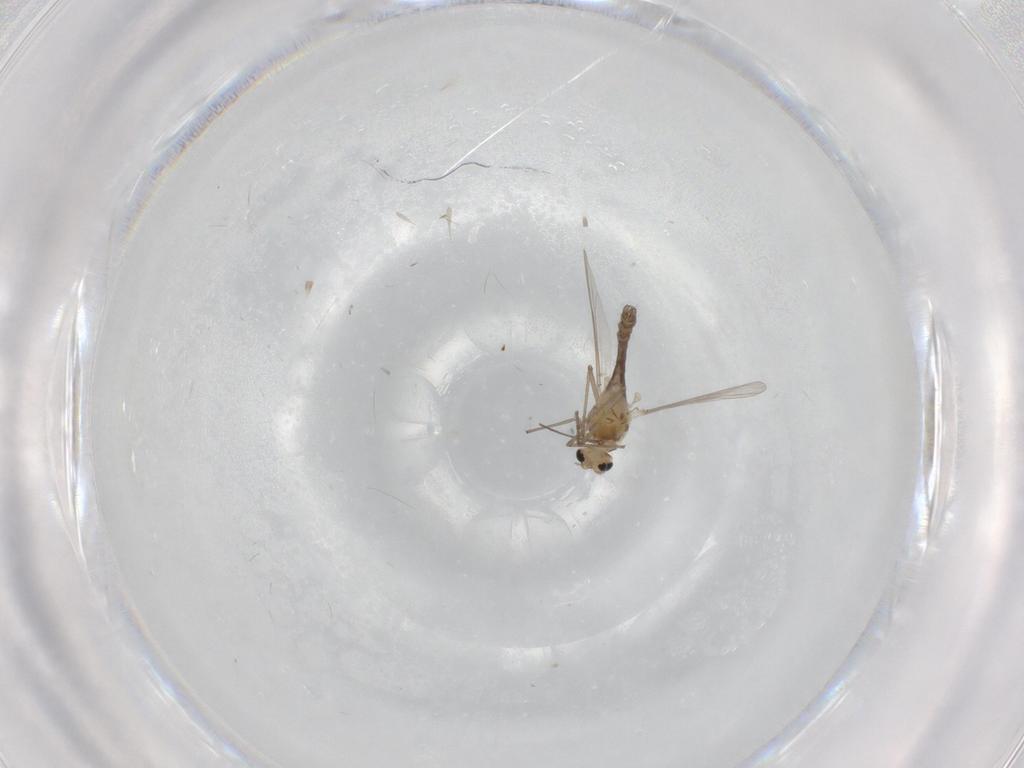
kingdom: Animalia
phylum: Arthropoda
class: Insecta
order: Diptera
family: Chironomidae
